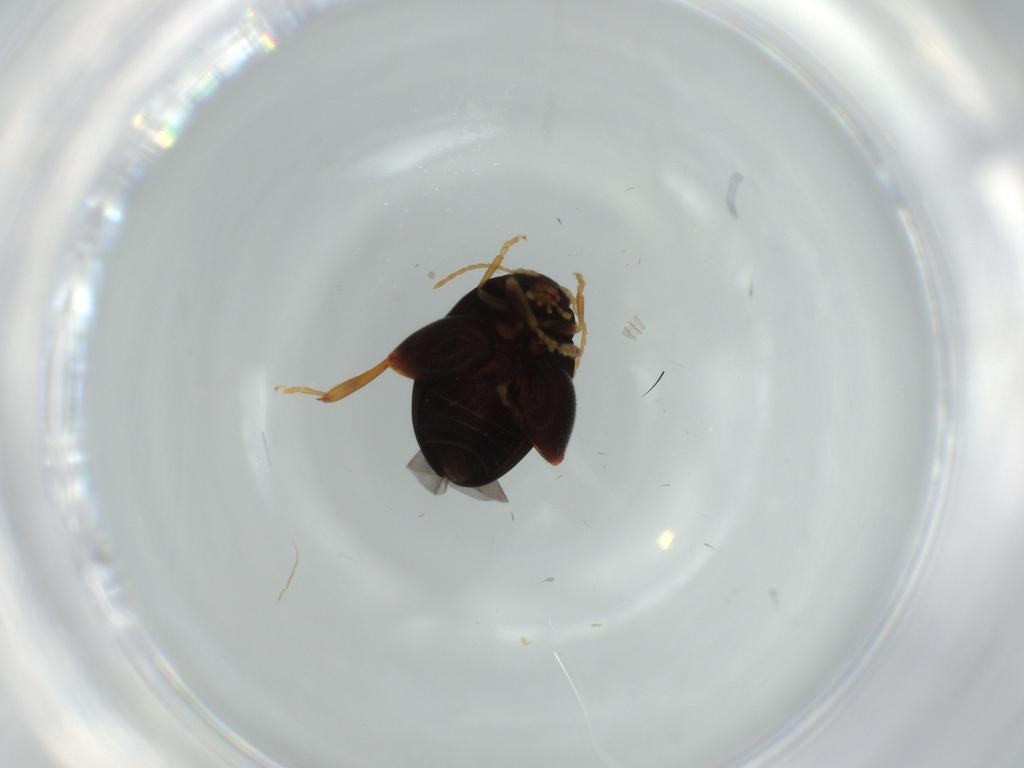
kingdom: Animalia
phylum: Arthropoda
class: Insecta
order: Coleoptera
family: Chrysomelidae
